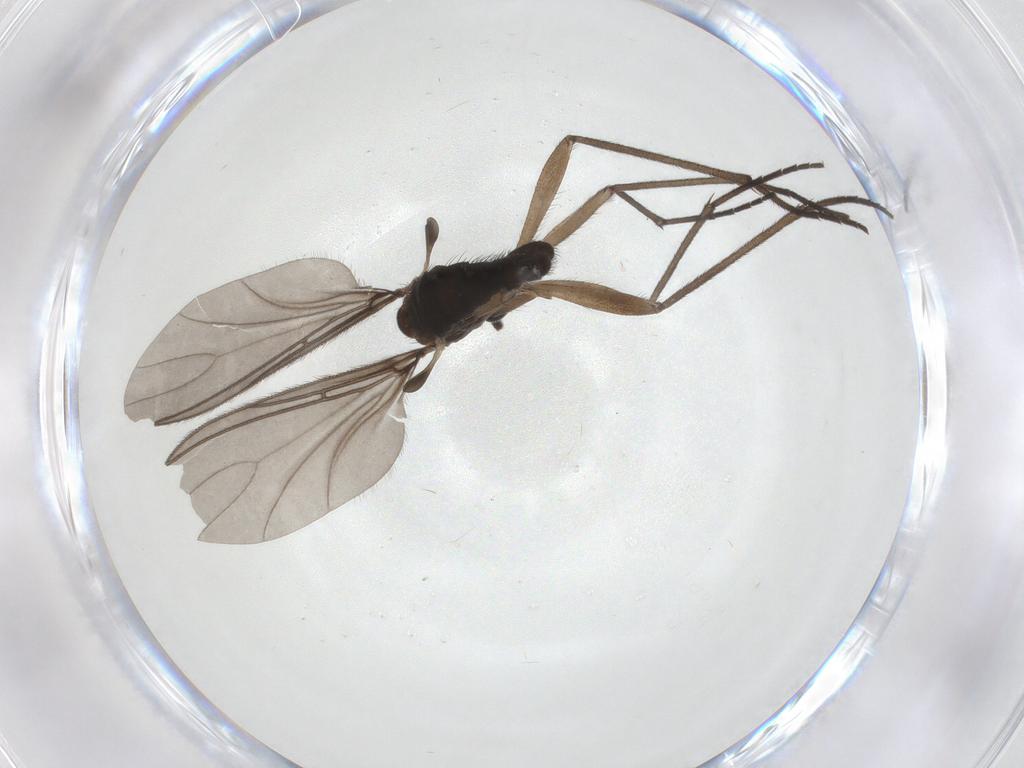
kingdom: Animalia
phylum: Arthropoda
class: Insecta
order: Diptera
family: Sciaridae
